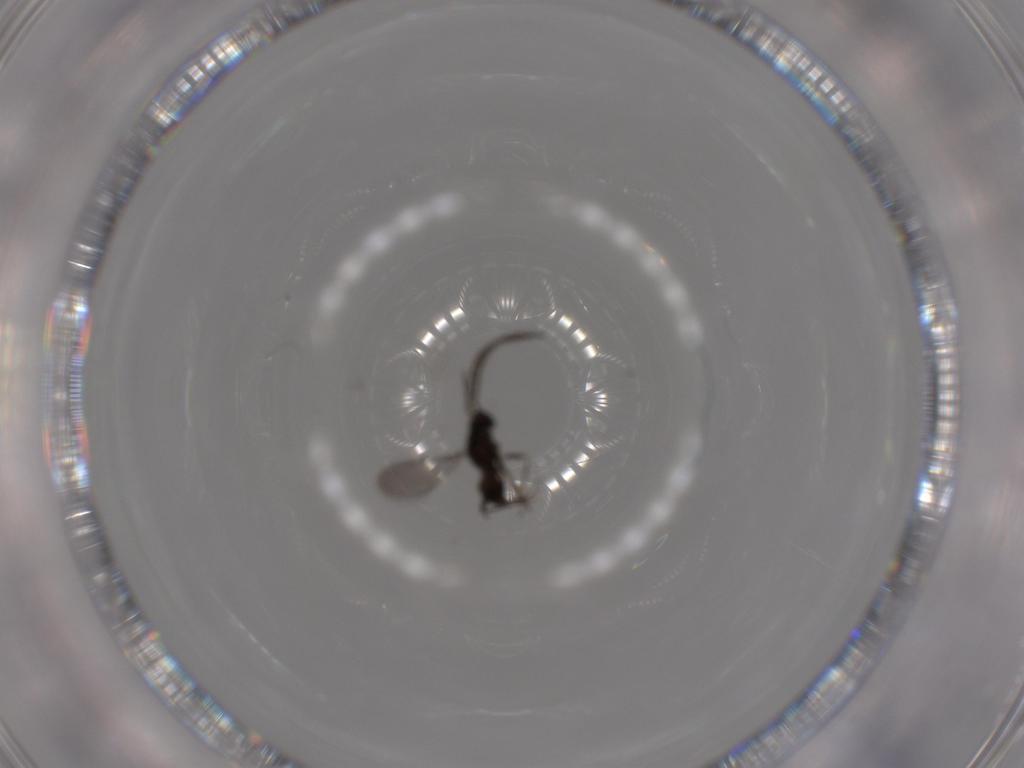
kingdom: Animalia
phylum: Arthropoda
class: Insecta
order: Hymenoptera
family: Mymaridae
